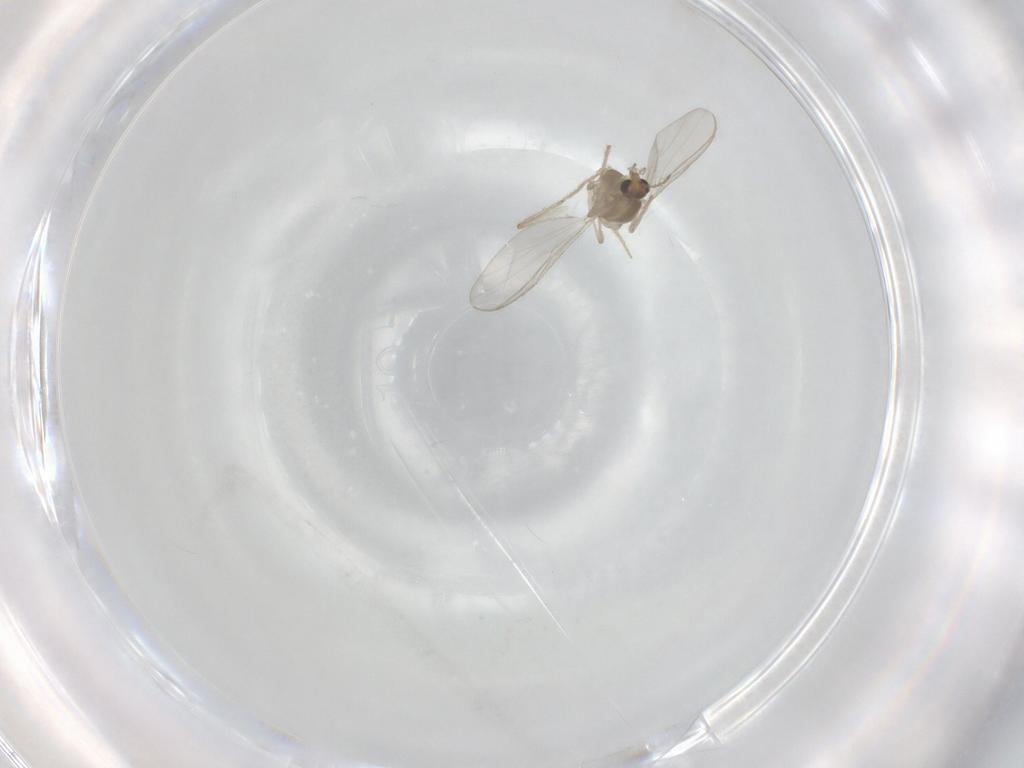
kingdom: Animalia
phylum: Arthropoda
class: Insecta
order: Diptera
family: Chironomidae
